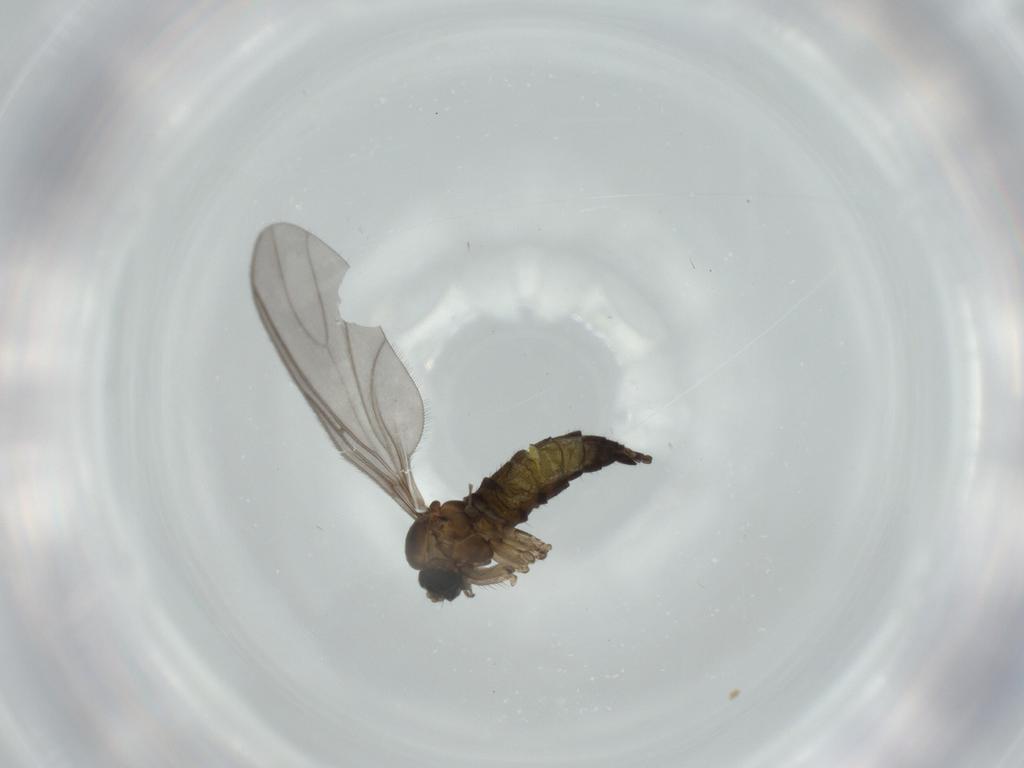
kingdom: Animalia
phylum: Arthropoda
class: Insecta
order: Diptera
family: Sciaridae
